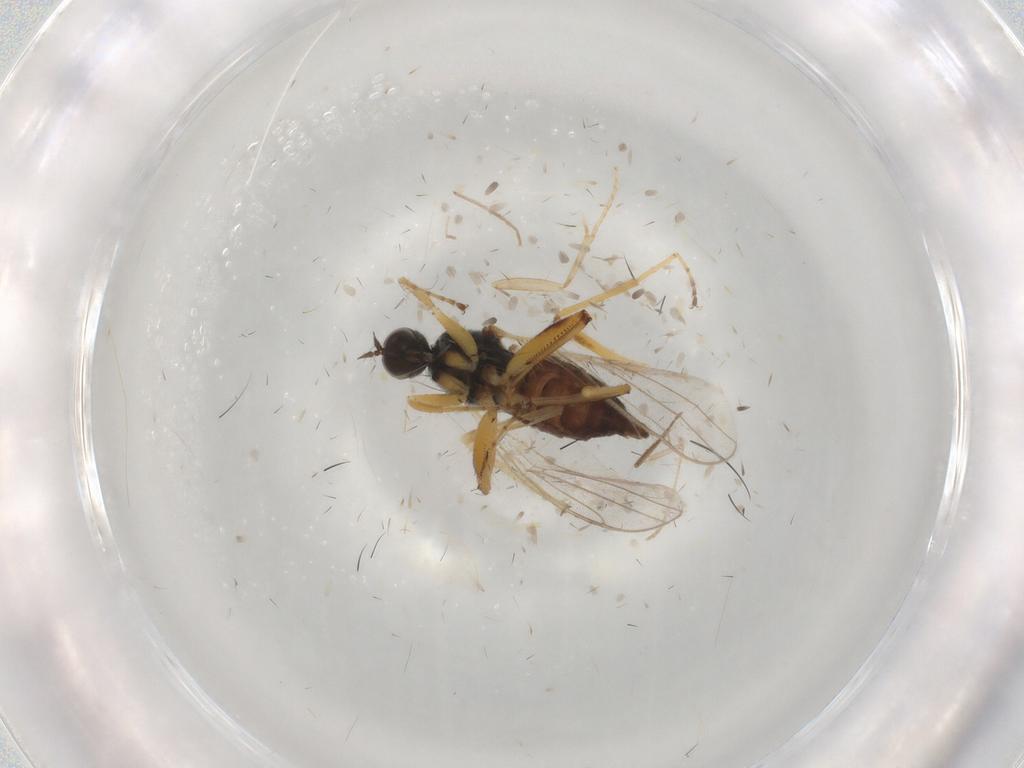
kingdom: Animalia
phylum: Arthropoda
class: Insecta
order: Diptera
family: Hybotidae
